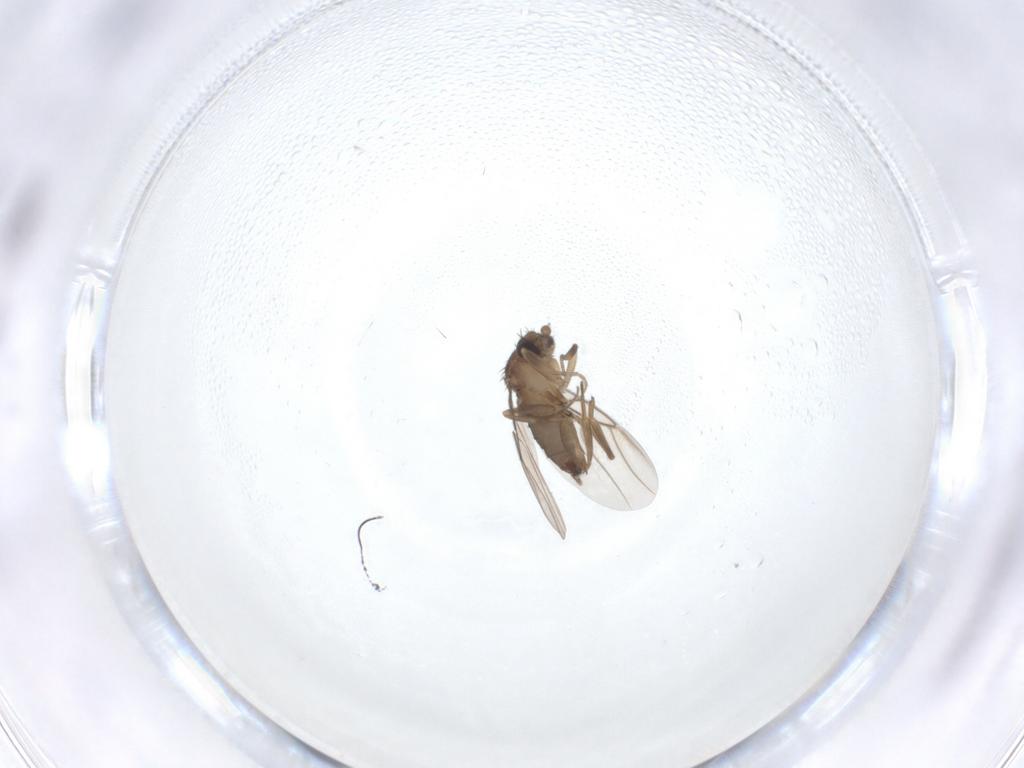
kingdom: Animalia
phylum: Arthropoda
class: Insecta
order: Diptera
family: Phoridae
